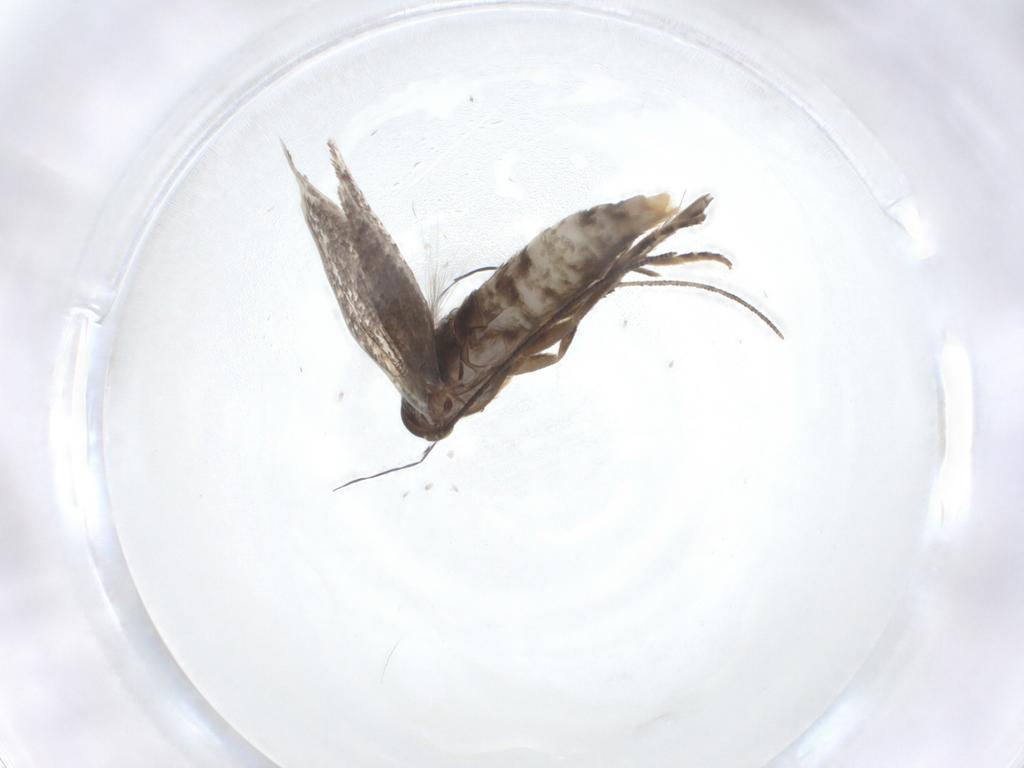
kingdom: Animalia
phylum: Arthropoda
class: Insecta
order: Lepidoptera
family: Elachistidae
